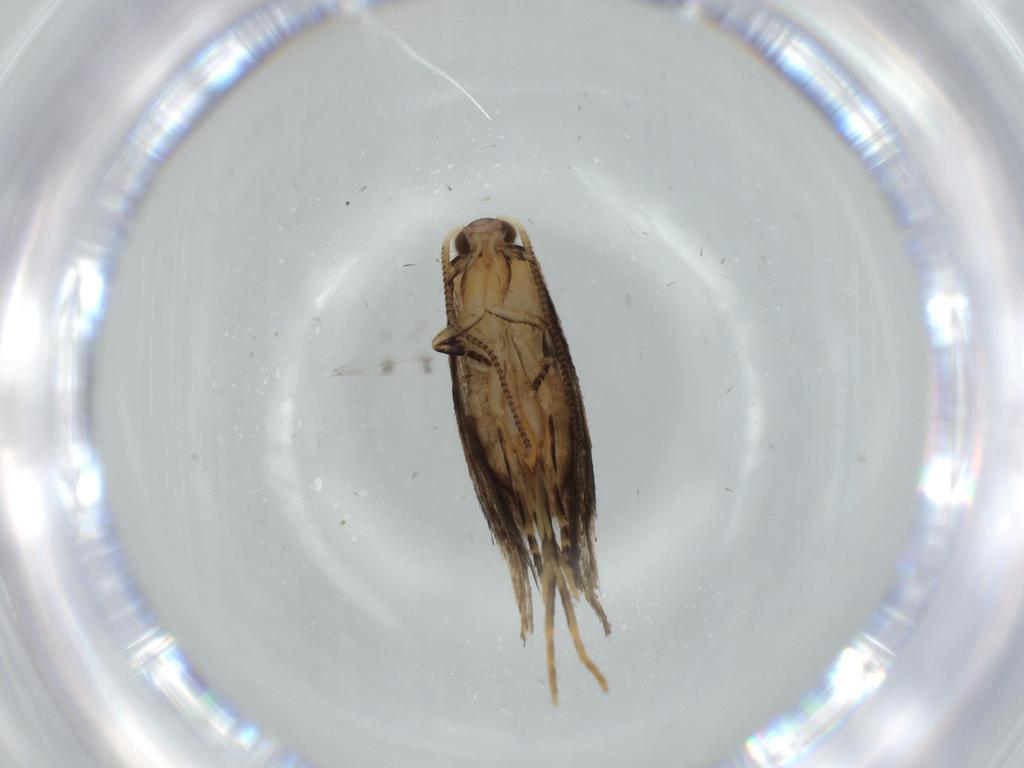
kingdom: Animalia
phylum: Arthropoda
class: Insecta
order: Lepidoptera
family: Tineidae
